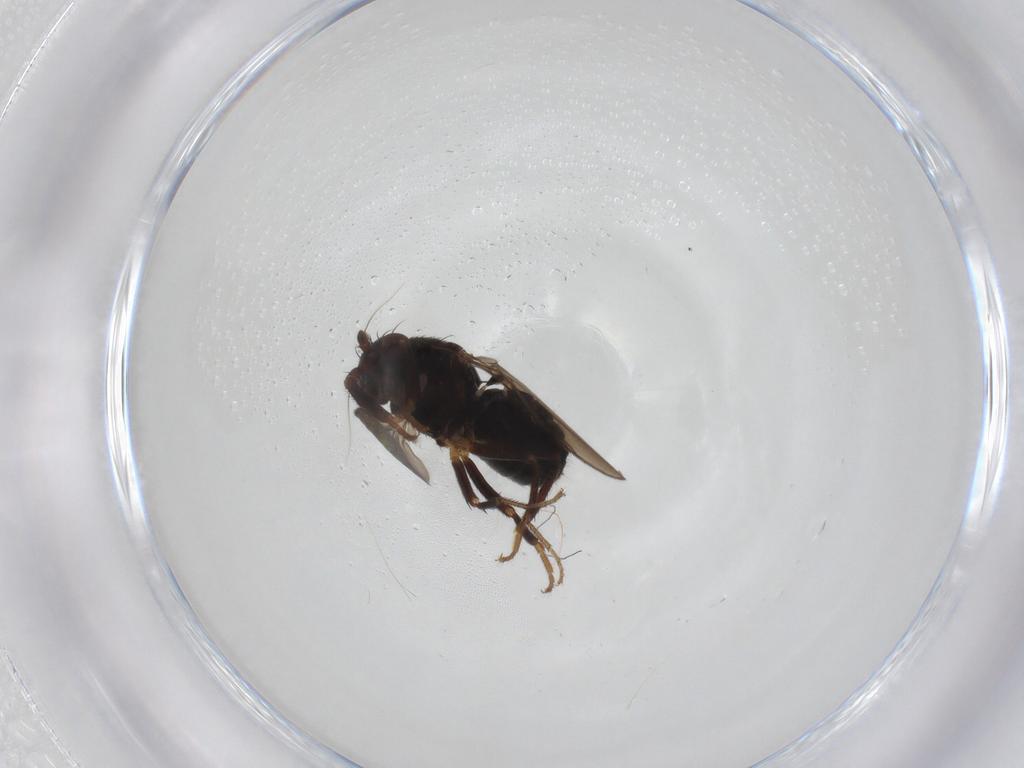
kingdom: Animalia
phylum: Arthropoda
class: Insecta
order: Diptera
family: Sphaeroceridae
